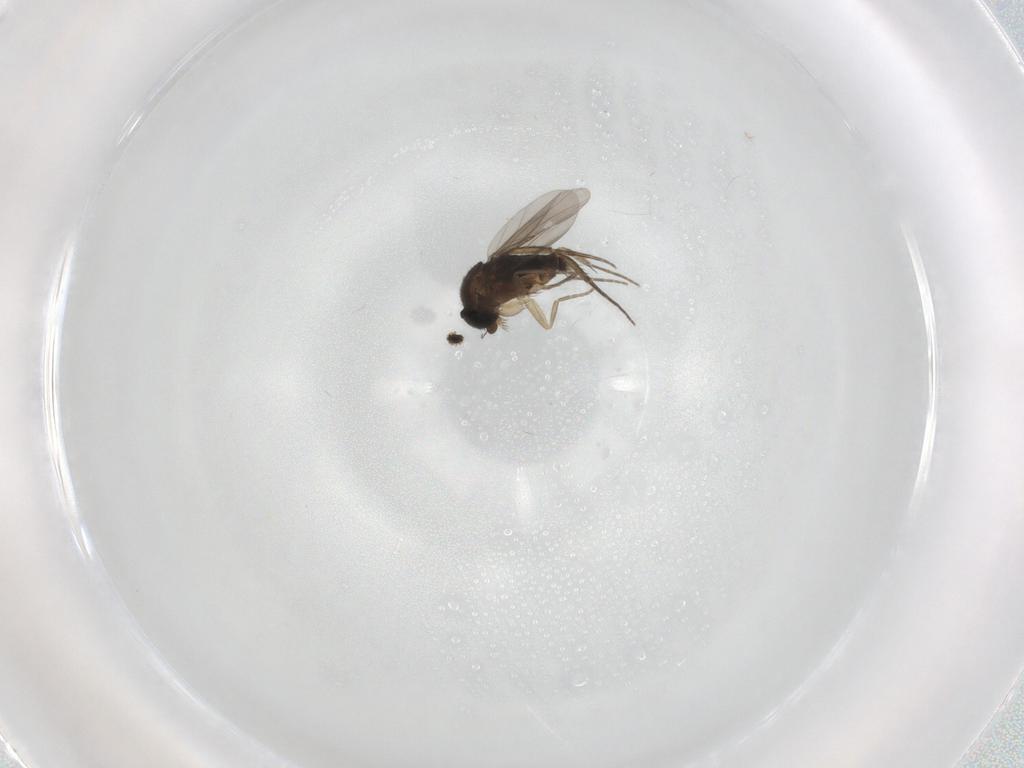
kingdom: Animalia
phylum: Arthropoda
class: Insecta
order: Diptera
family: Phoridae
